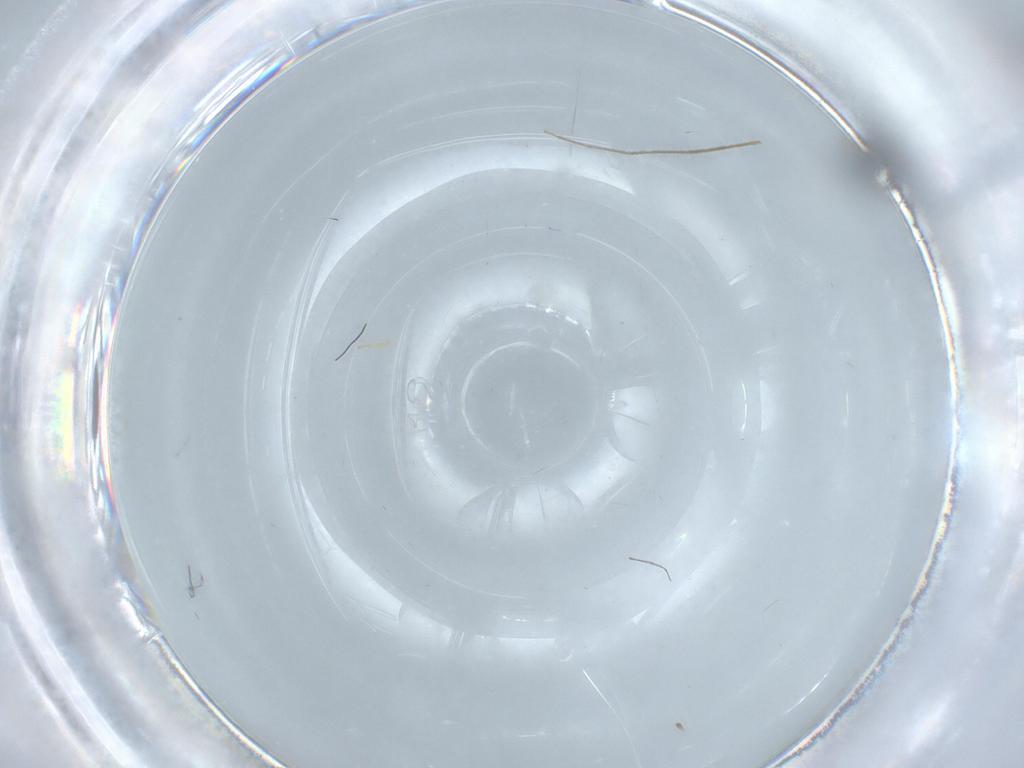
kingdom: Animalia
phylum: Arthropoda
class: Insecta
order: Diptera
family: Chironomidae
